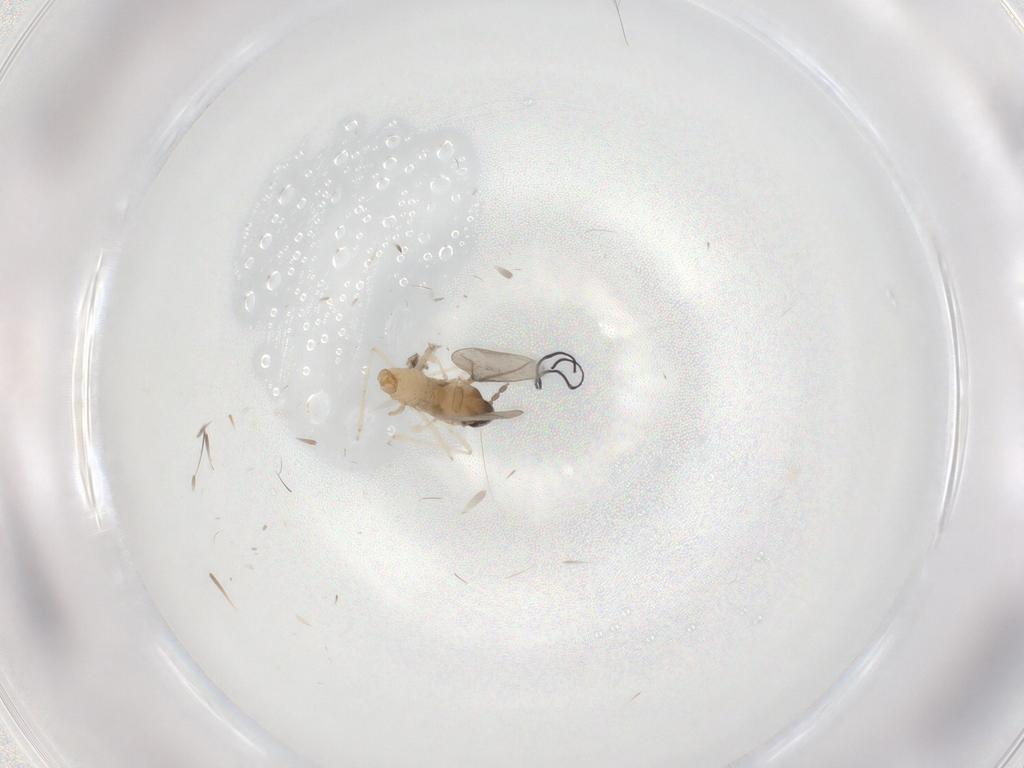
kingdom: Animalia
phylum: Arthropoda
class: Insecta
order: Diptera
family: Cecidomyiidae
